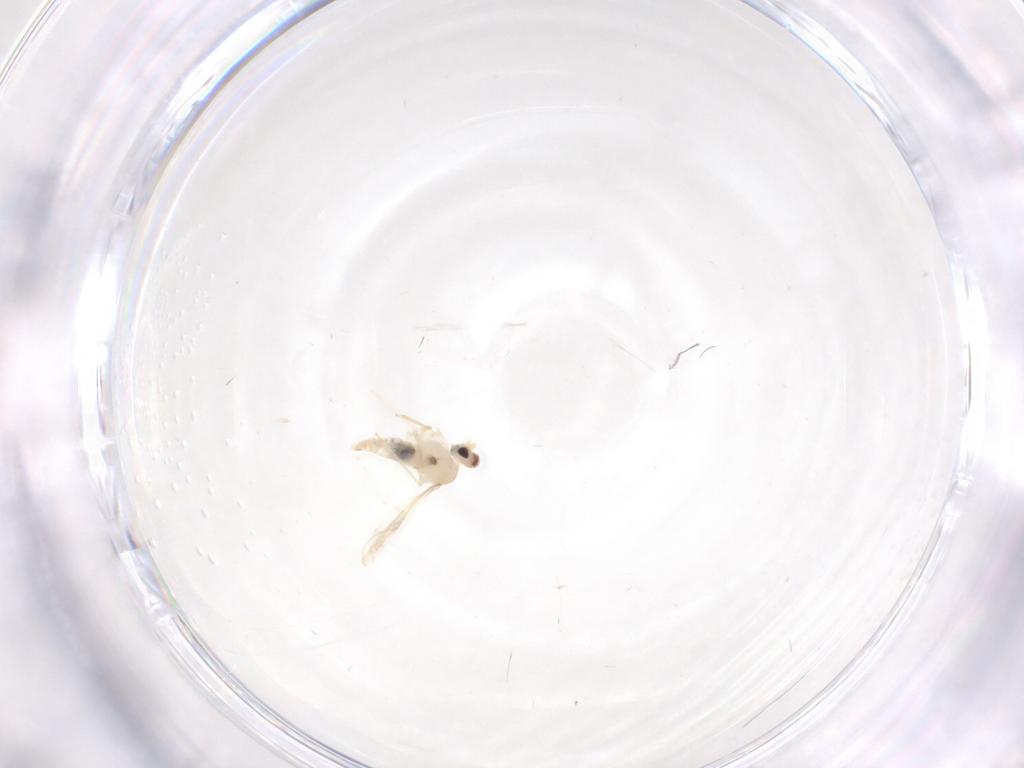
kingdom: Animalia
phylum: Arthropoda
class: Insecta
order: Diptera
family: Cecidomyiidae
